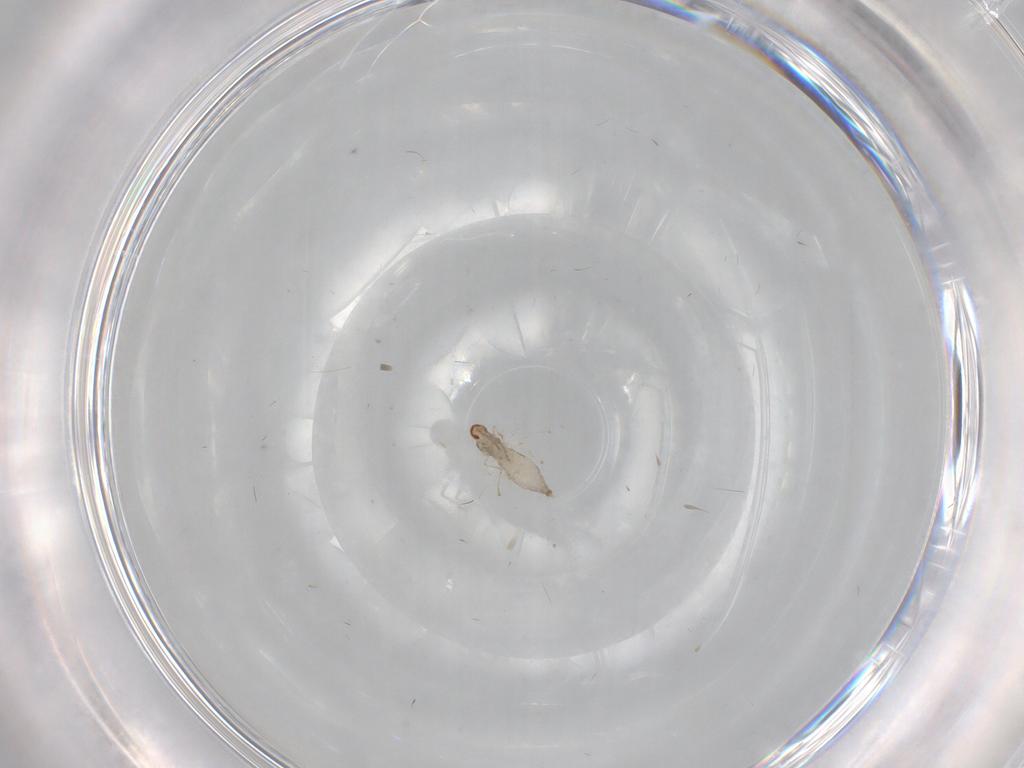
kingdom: Animalia
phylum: Arthropoda
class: Insecta
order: Diptera
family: Cecidomyiidae
